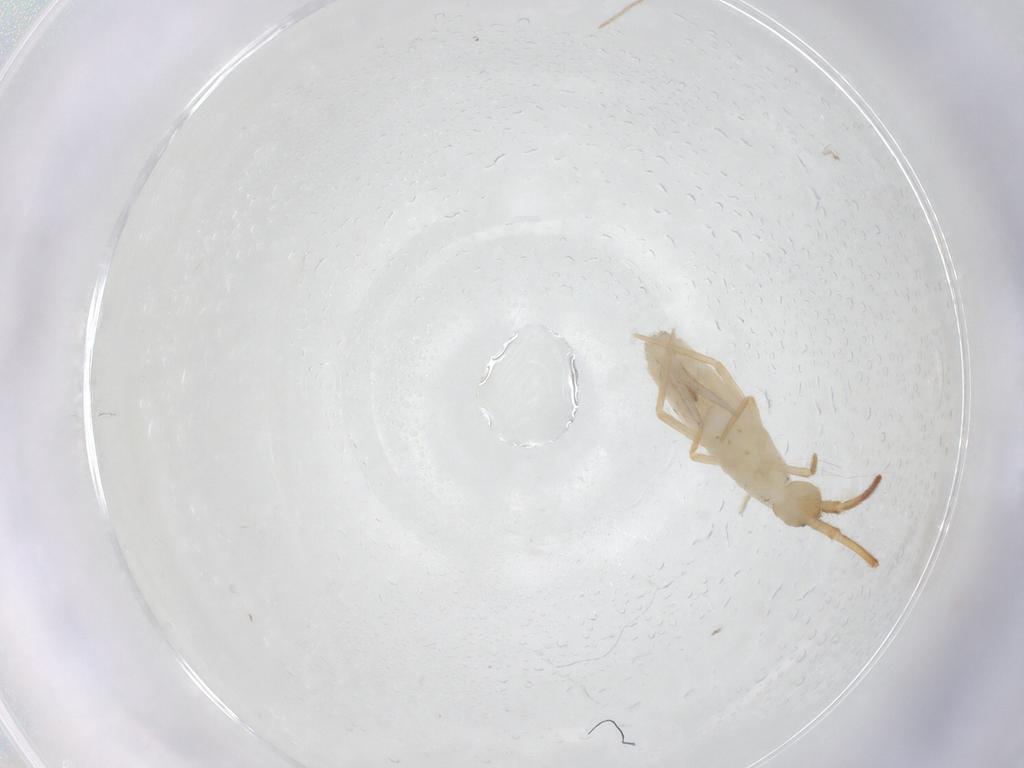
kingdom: Animalia
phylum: Arthropoda
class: Collembola
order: Entomobryomorpha
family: Entomobryidae
